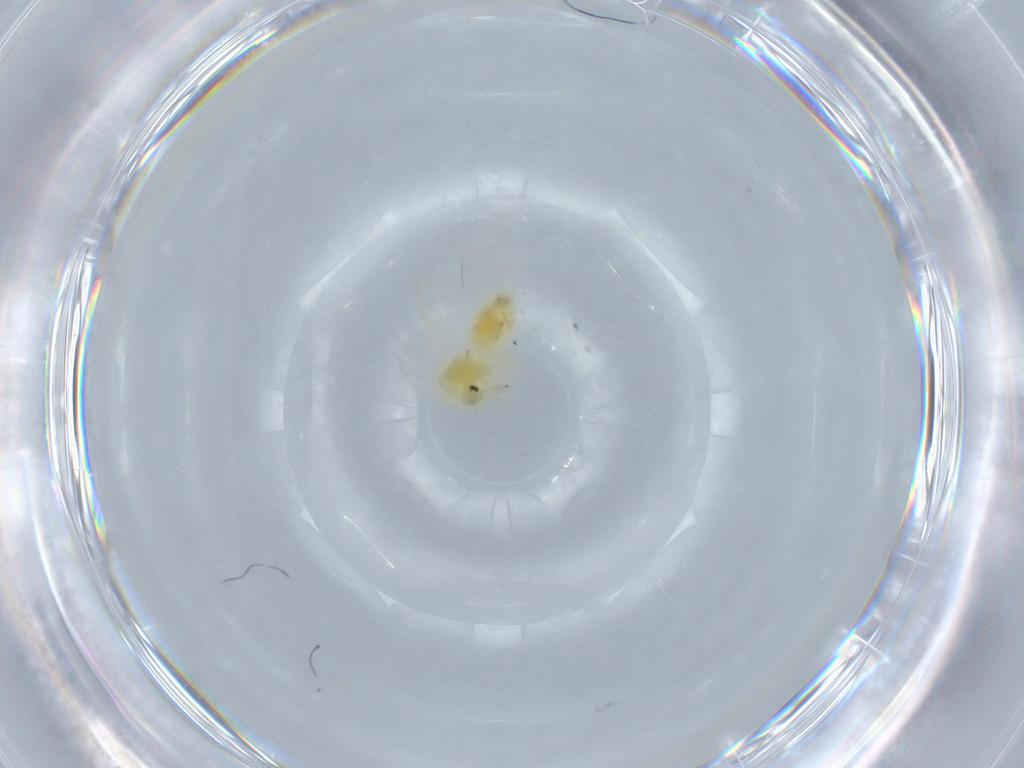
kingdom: Animalia
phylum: Arthropoda
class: Insecta
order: Hemiptera
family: Aleyrodidae
